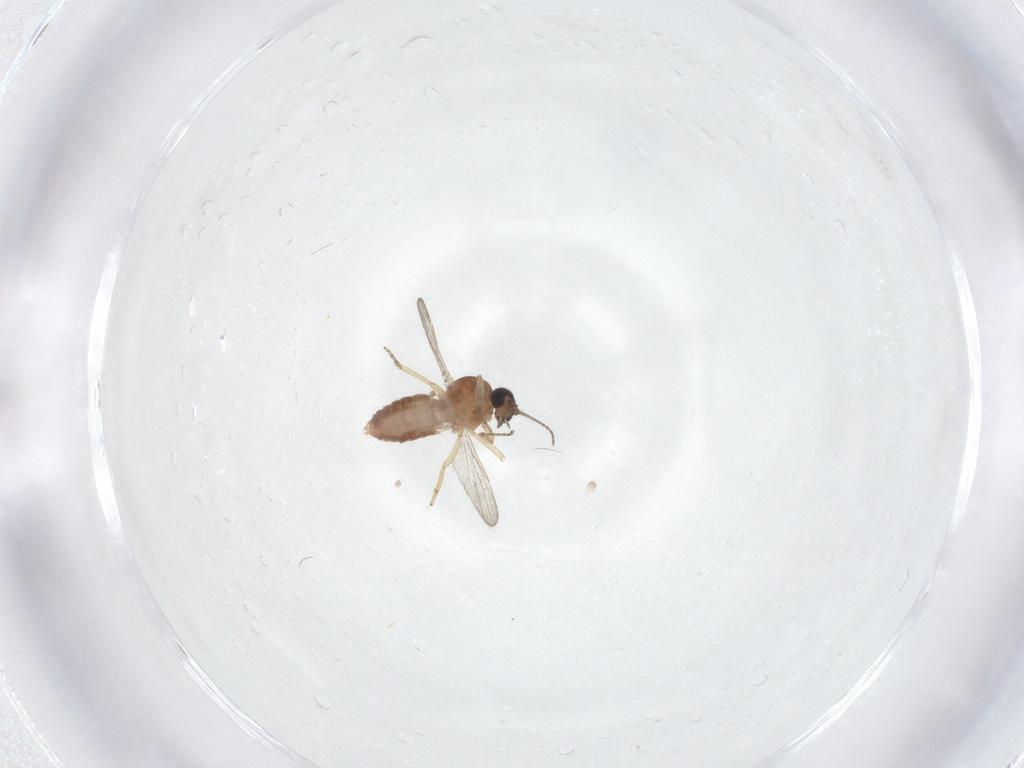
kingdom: Animalia
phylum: Arthropoda
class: Insecta
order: Diptera
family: Ceratopogonidae
